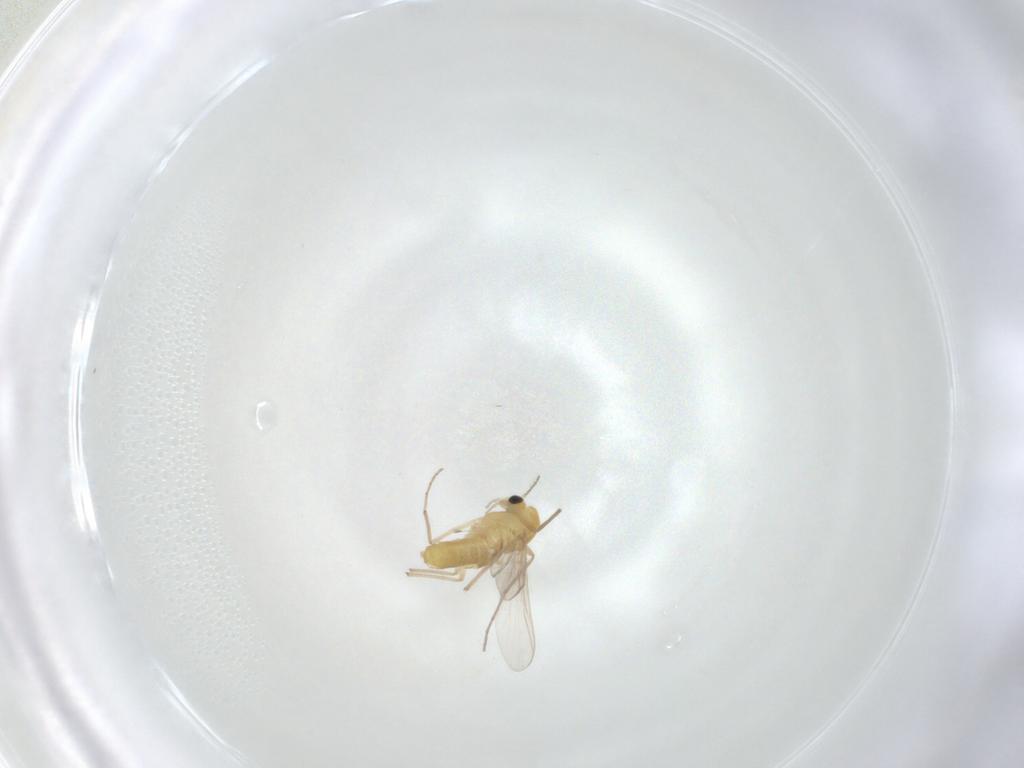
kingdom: Animalia
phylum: Arthropoda
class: Insecta
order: Diptera
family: Chironomidae
